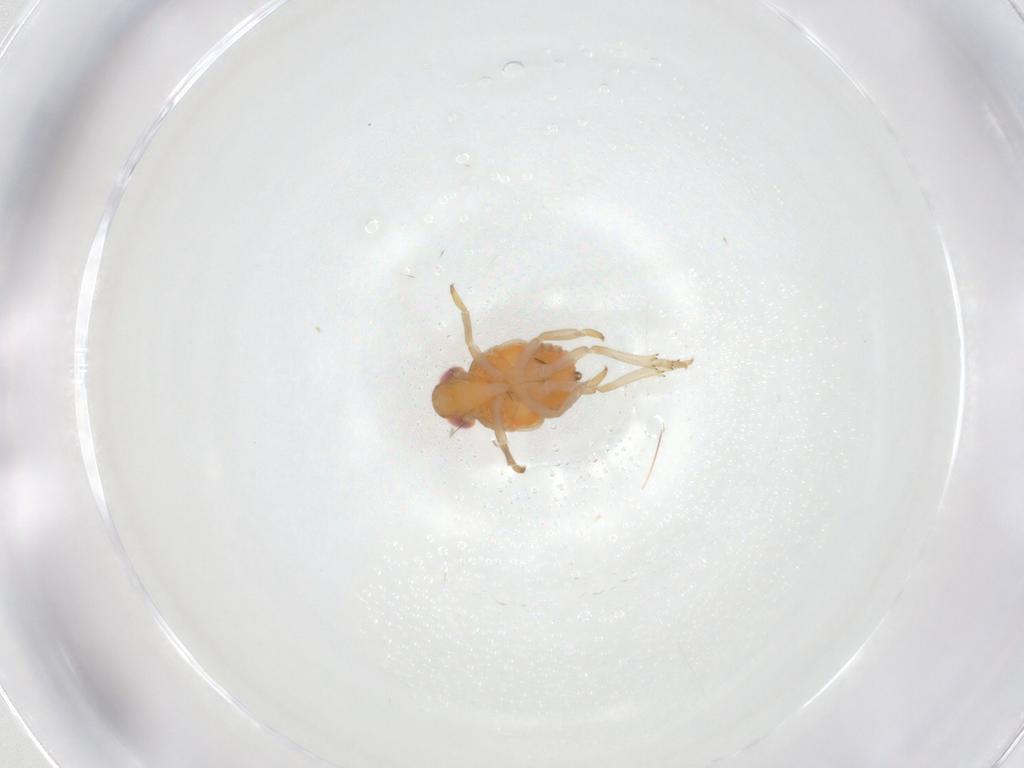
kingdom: Animalia
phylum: Arthropoda
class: Insecta
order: Hemiptera
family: Fulgoroidea_incertae_sedis
